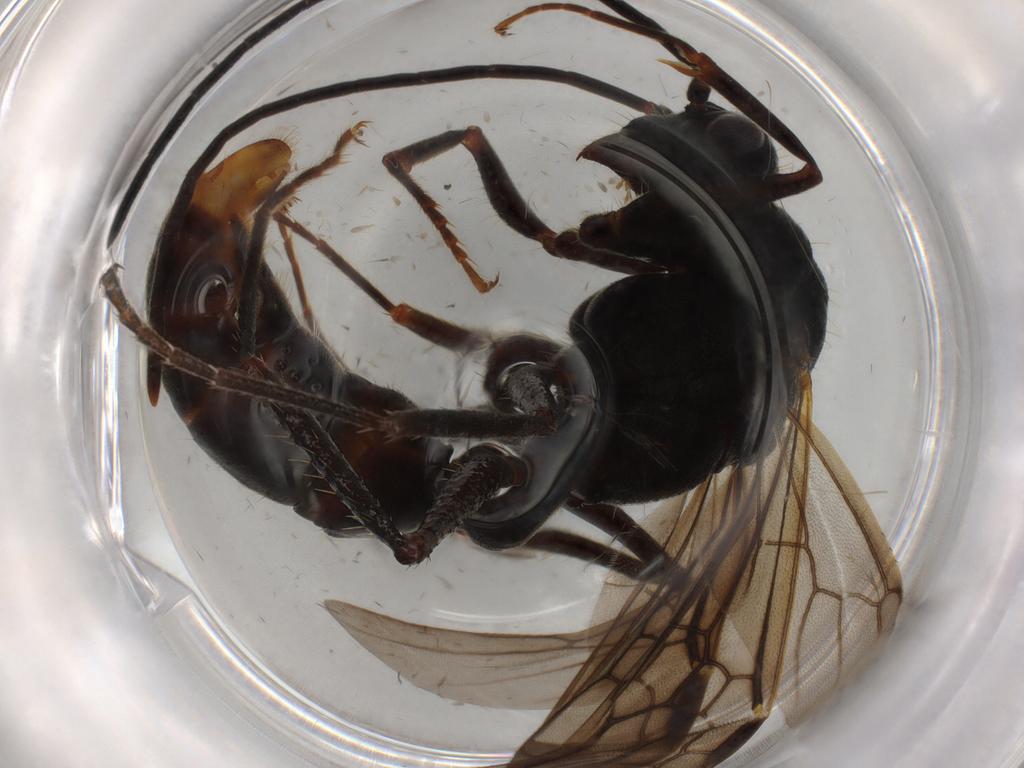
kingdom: Animalia
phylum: Arthropoda
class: Insecta
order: Hymenoptera
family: Formicidae
